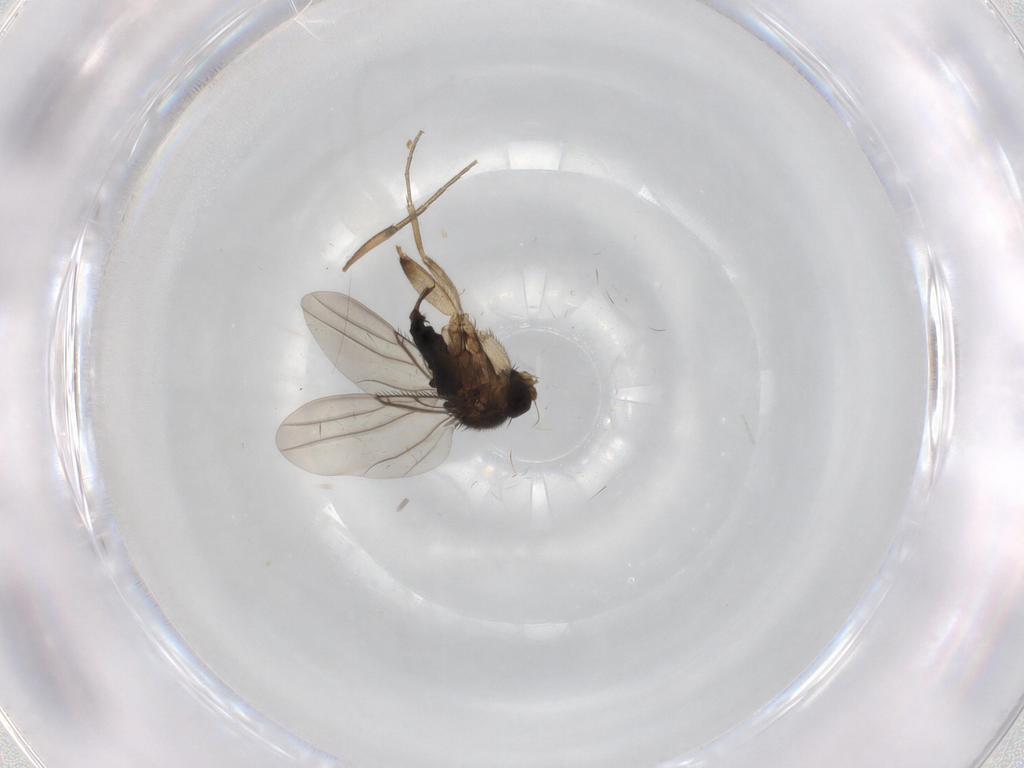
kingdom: Animalia
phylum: Arthropoda
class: Insecta
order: Diptera
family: Phoridae
